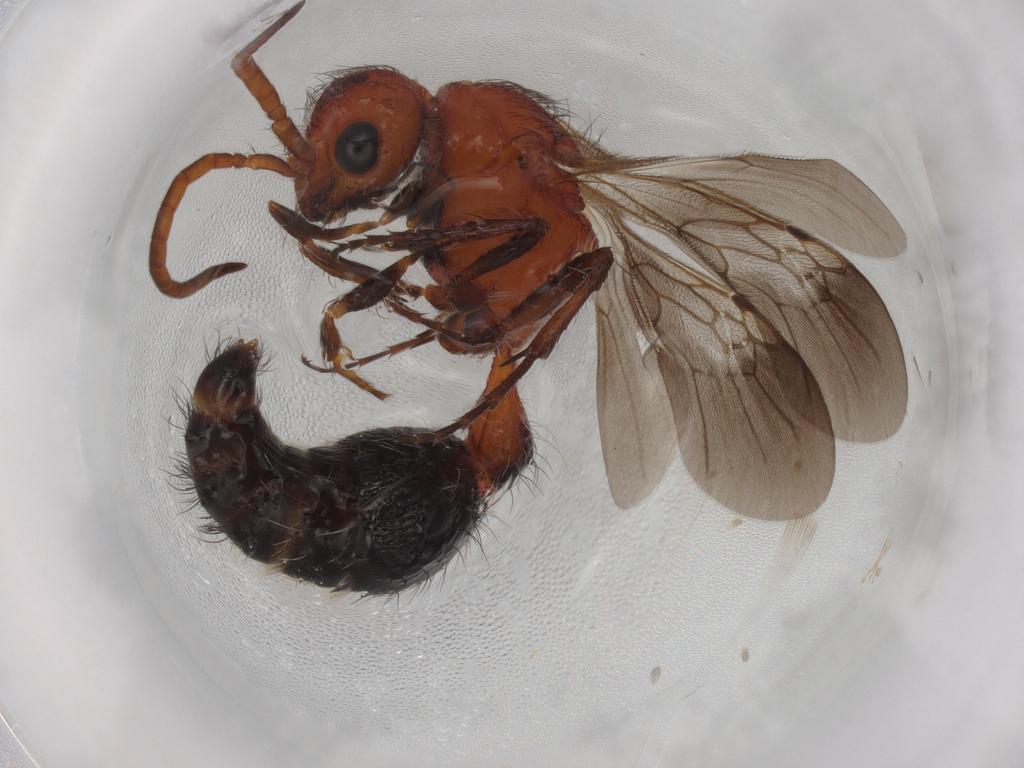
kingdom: Animalia
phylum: Arthropoda
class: Insecta
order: Hymenoptera
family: Mutillidae
